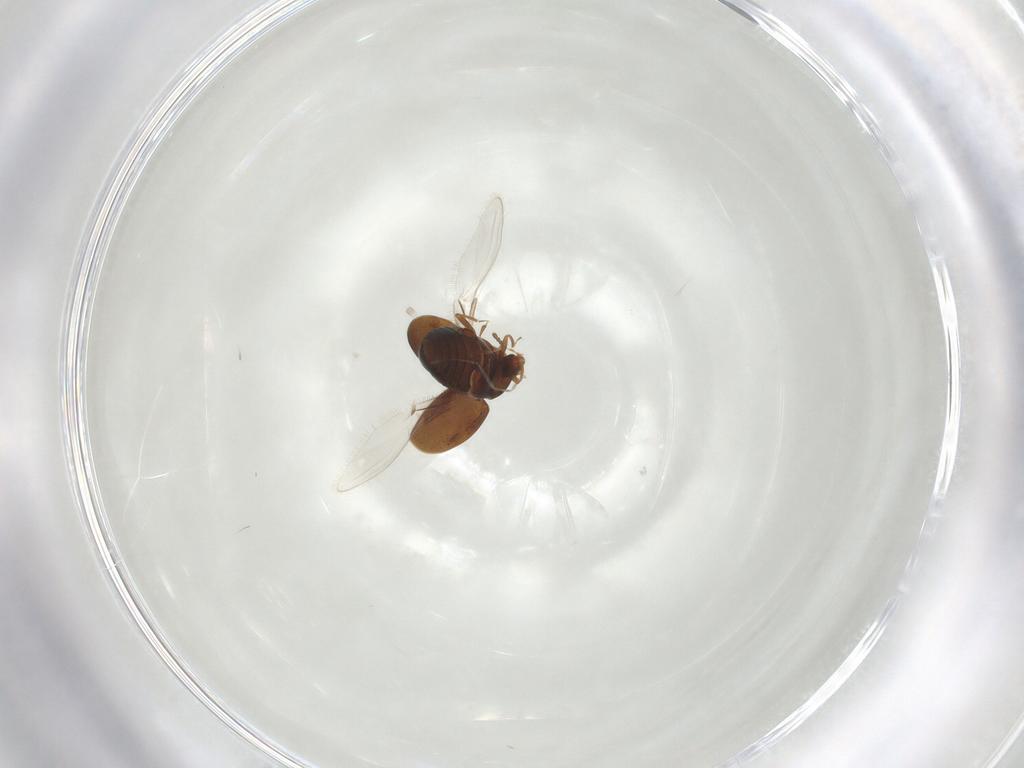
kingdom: Animalia
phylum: Arthropoda
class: Insecta
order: Coleoptera
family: Corylophidae
